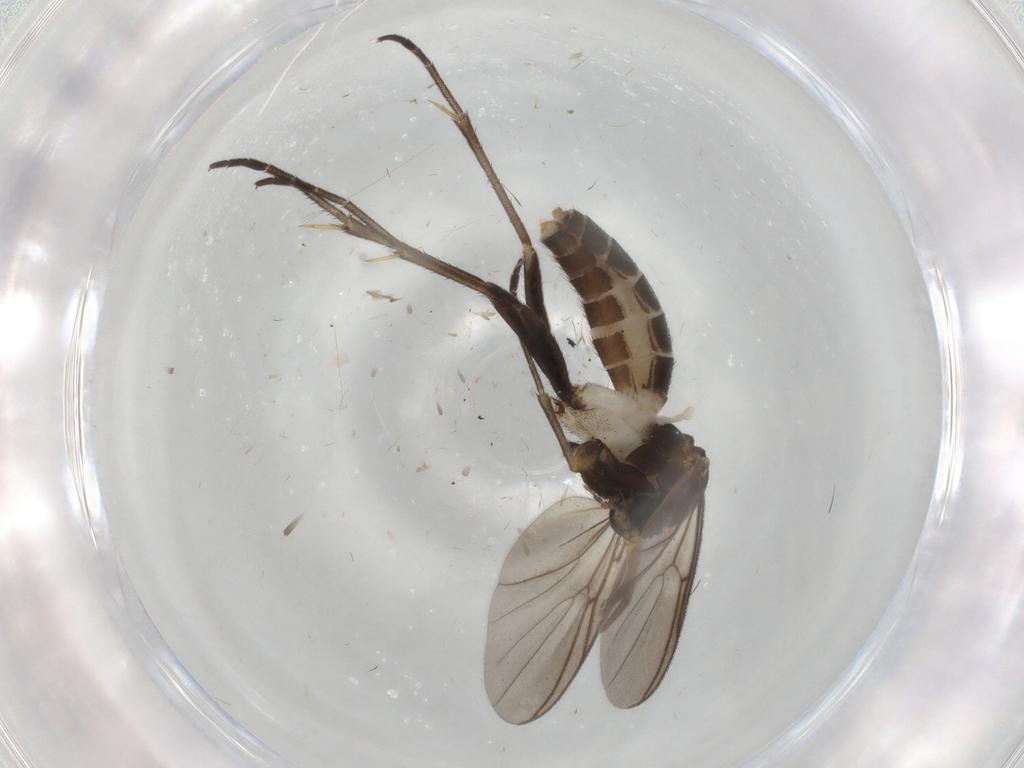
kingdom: Animalia
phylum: Arthropoda
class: Insecta
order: Diptera
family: Mycetophilidae
